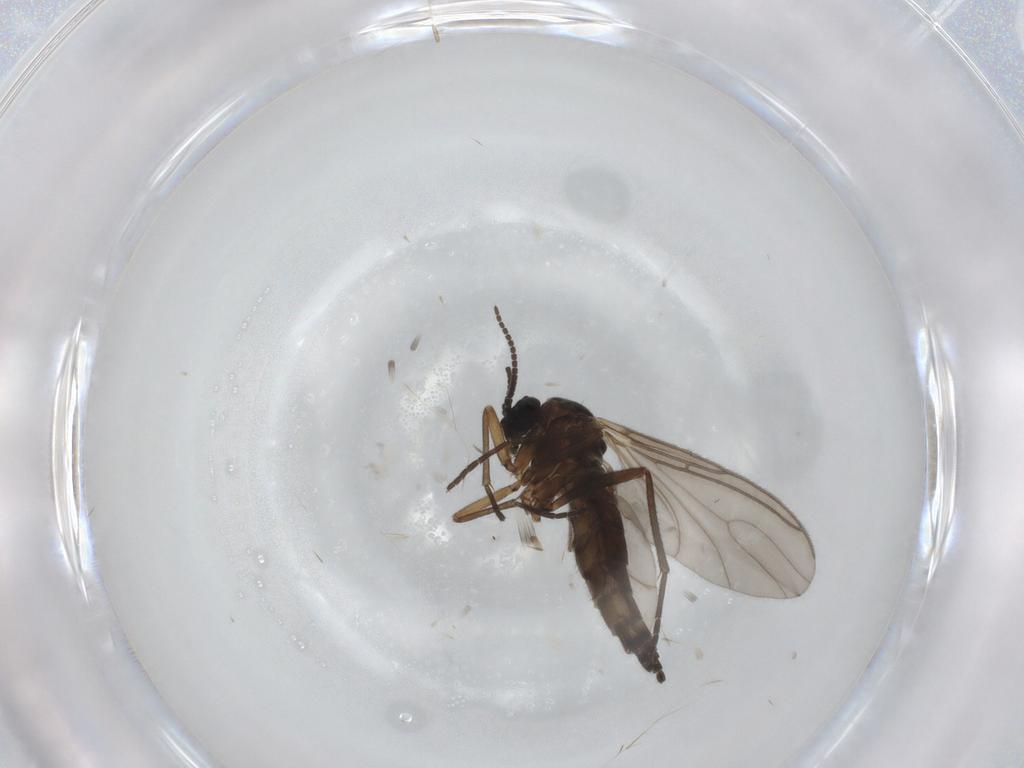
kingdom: Animalia
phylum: Arthropoda
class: Insecta
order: Diptera
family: Sciaridae
